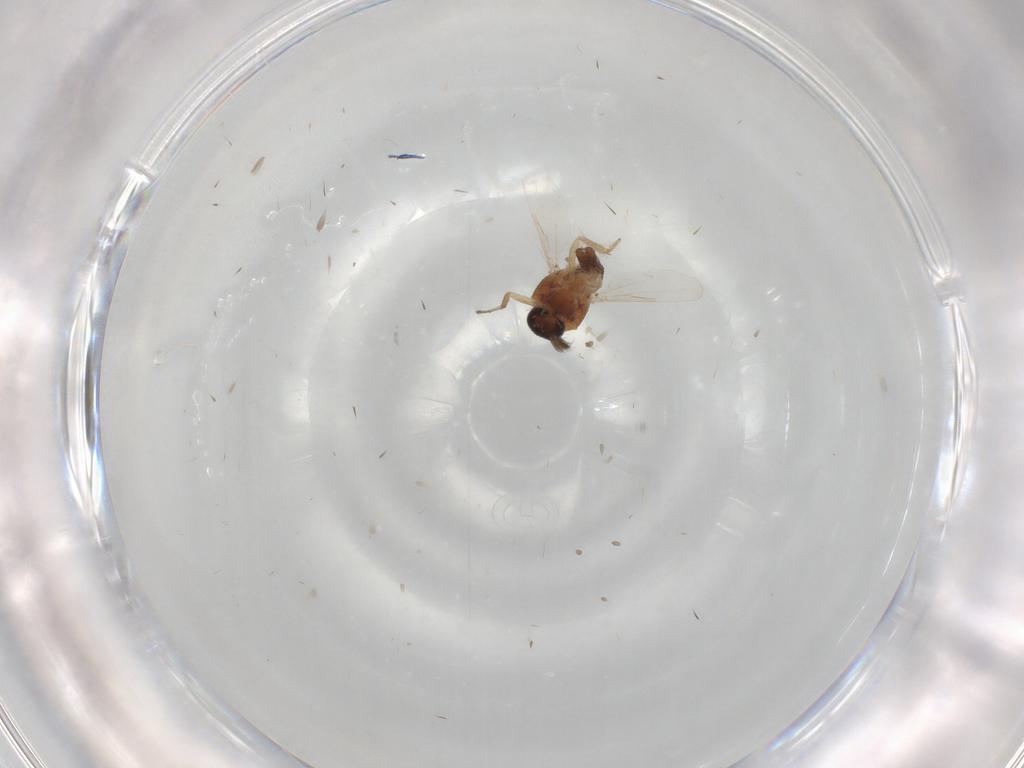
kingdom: Animalia
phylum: Arthropoda
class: Insecta
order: Diptera
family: Ceratopogonidae
